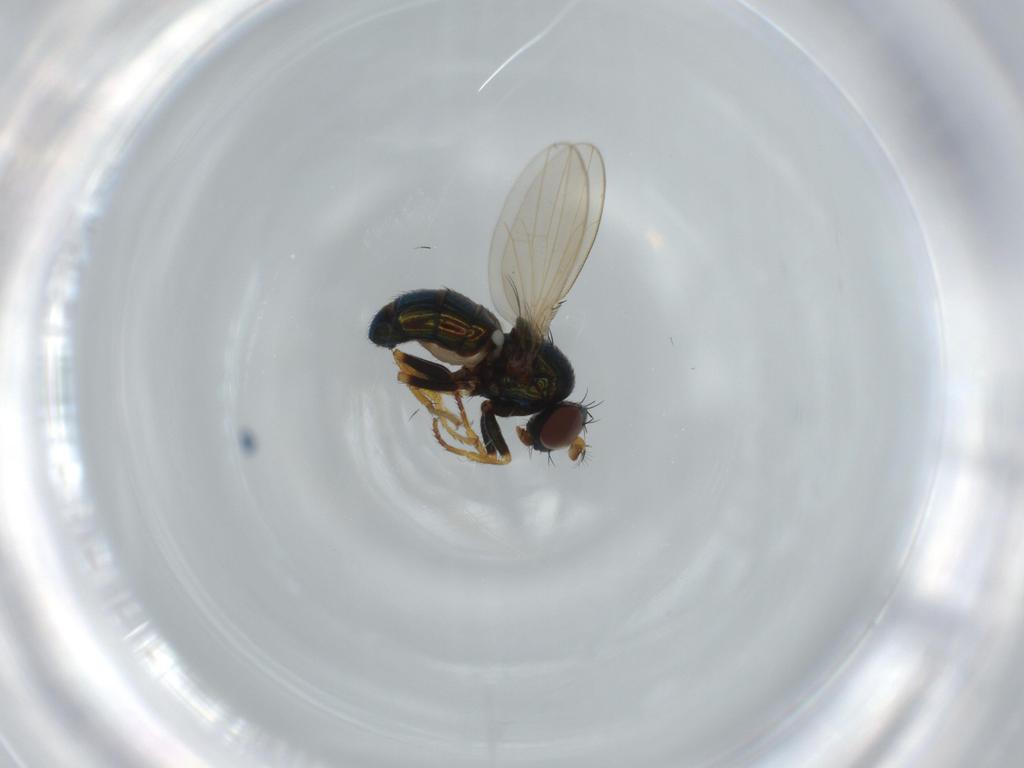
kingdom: Animalia
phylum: Arthropoda
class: Insecta
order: Diptera
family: Ephydridae
